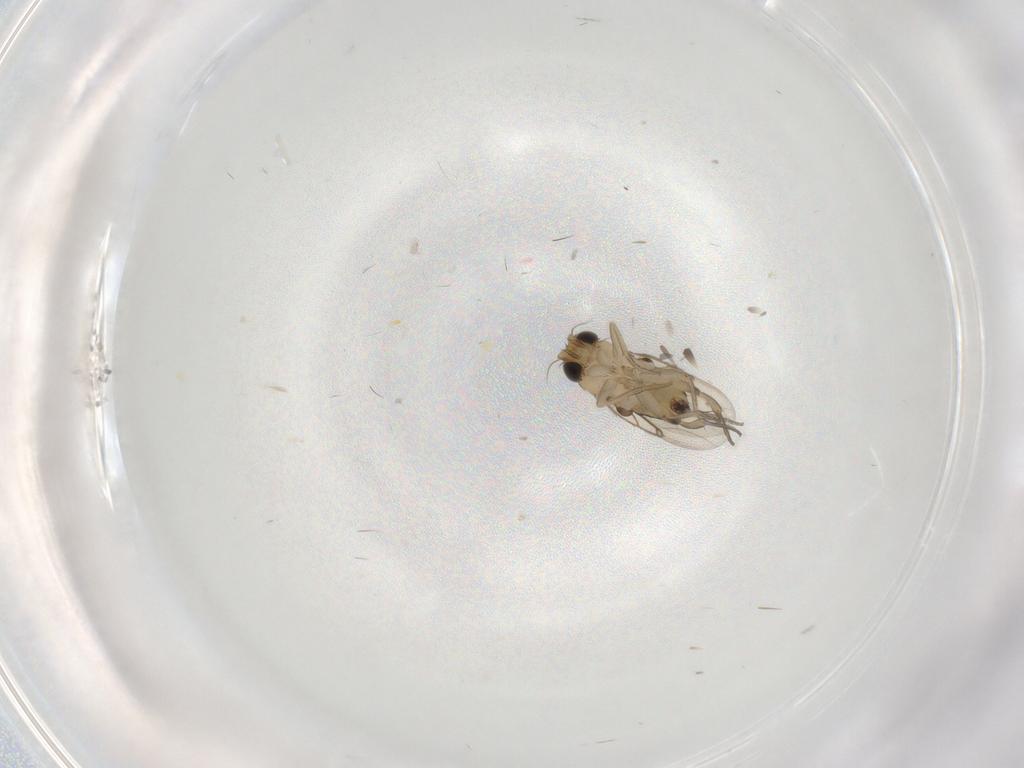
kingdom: Animalia
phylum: Arthropoda
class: Insecta
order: Diptera
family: Phoridae
